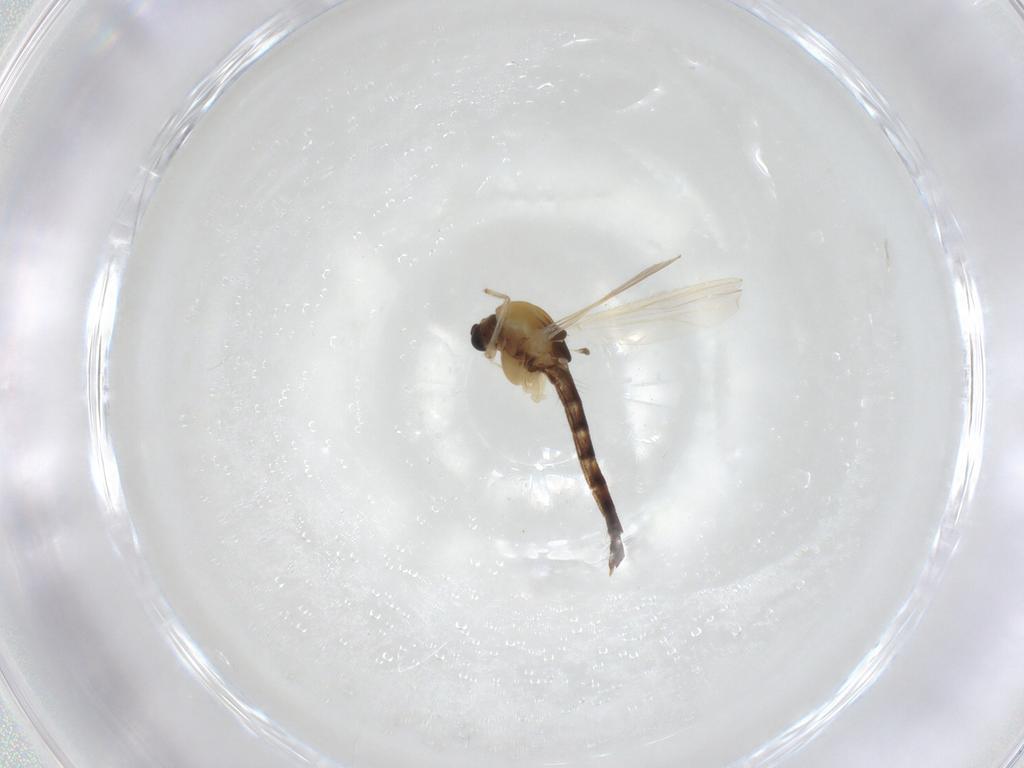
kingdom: Animalia
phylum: Arthropoda
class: Insecta
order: Diptera
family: Chironomidae
